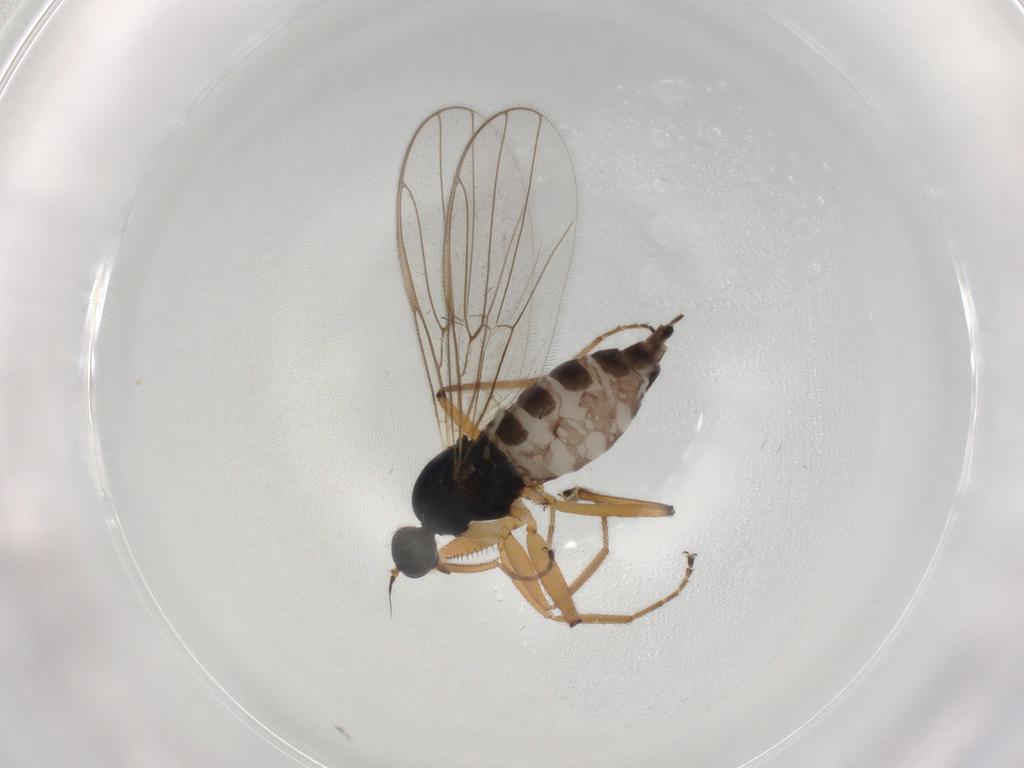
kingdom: Animalia
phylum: Arthropoda
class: Insecta
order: Diptera
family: Hybotidae
